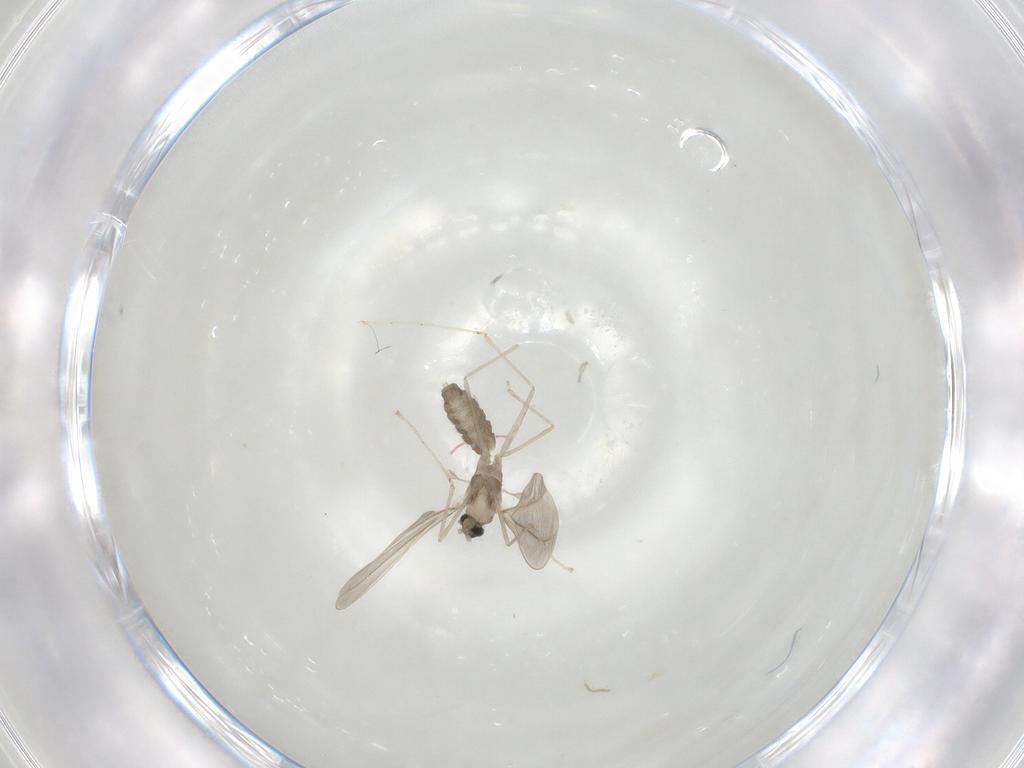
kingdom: Animalia
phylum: Arthropoda
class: Insecta
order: Diptera
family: Cecidomyiidae
